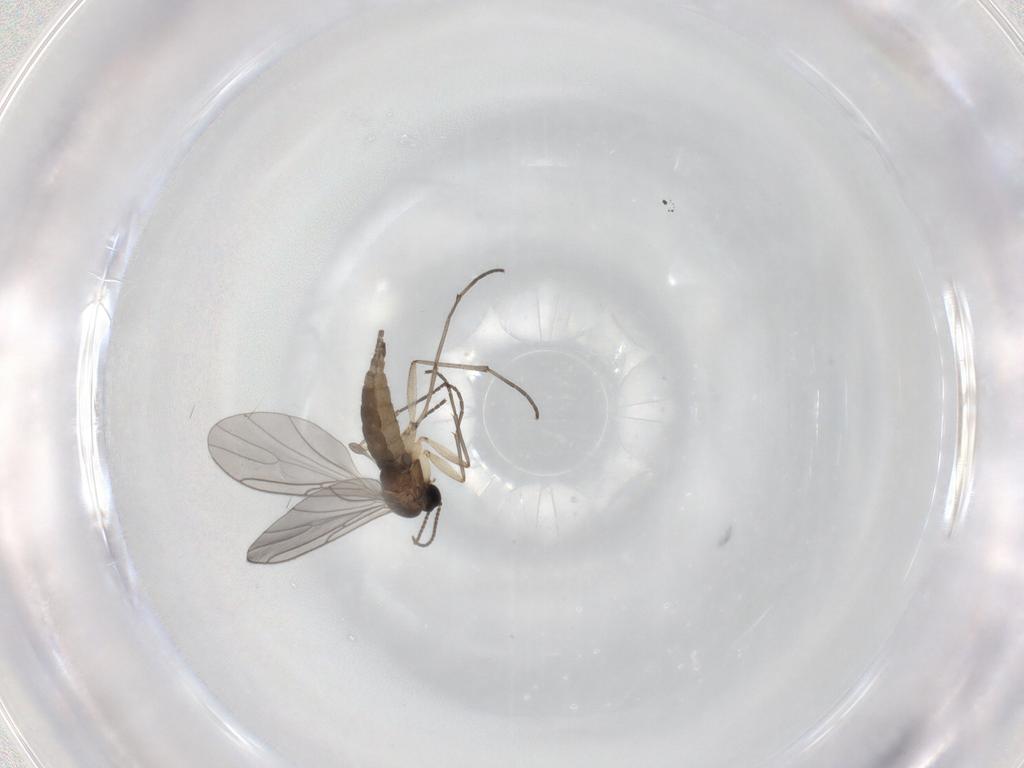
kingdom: Animalia
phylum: Arthropoda
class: Insecta
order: Diptera
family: Sciaridae
